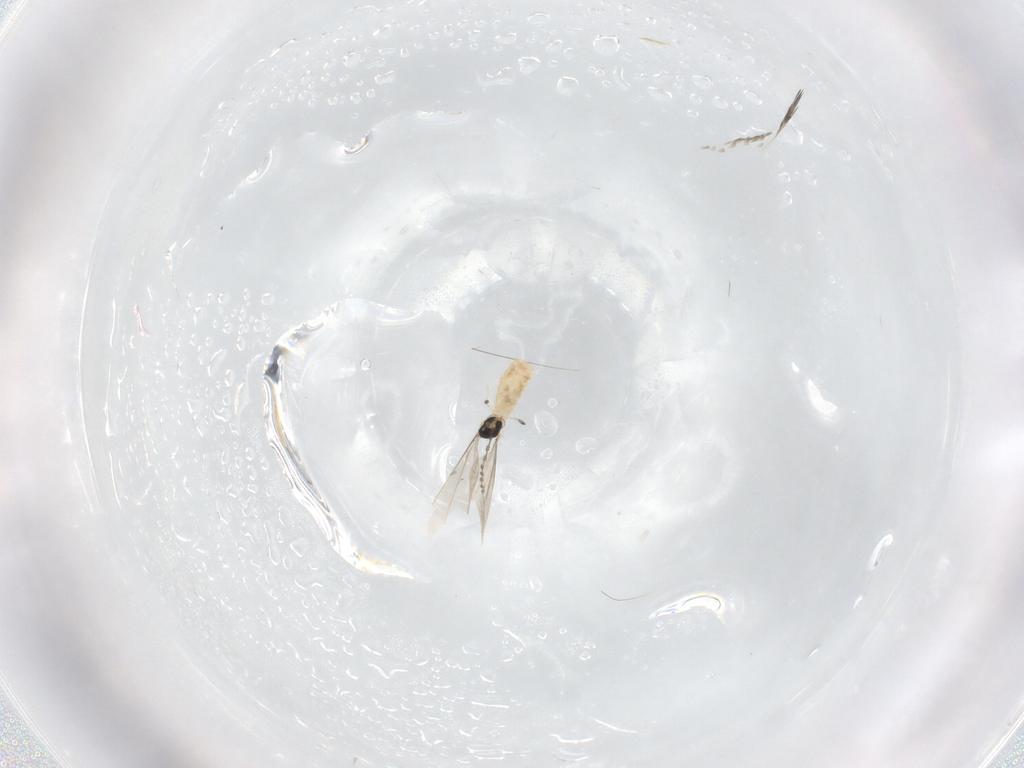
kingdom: Animalia
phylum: Arthropoda
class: Insecta
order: Diptera
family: Cecidomyiidae
